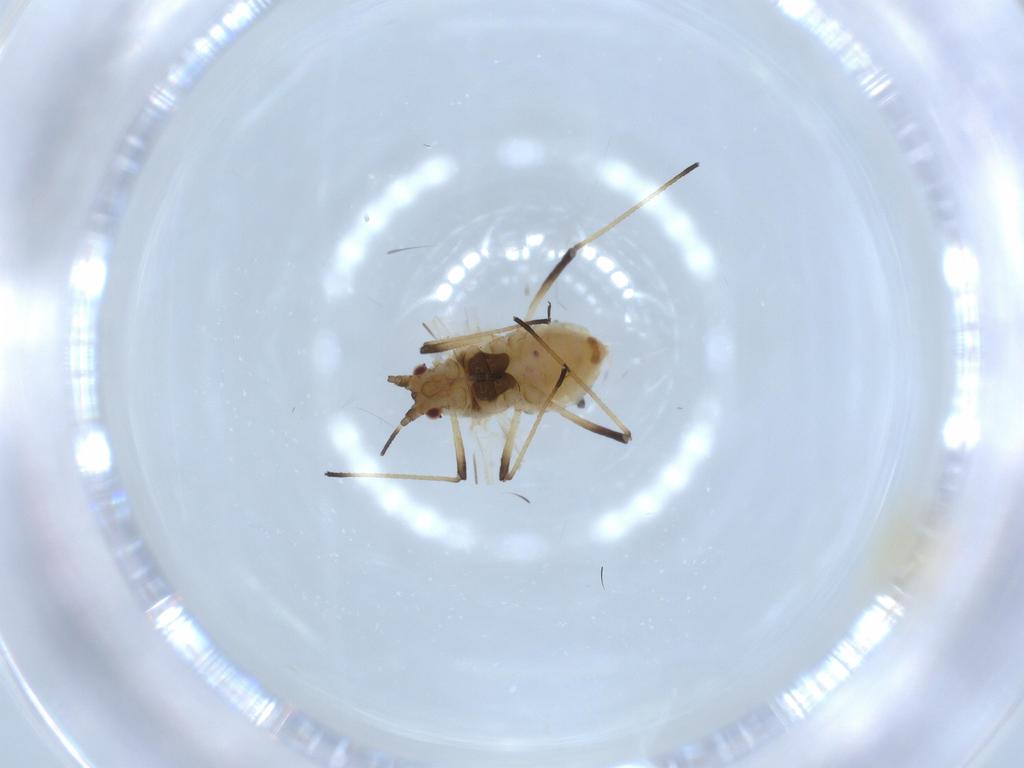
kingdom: Animalia
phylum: Arthropoda
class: Insecta
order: Hemiptera
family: Aphididae
